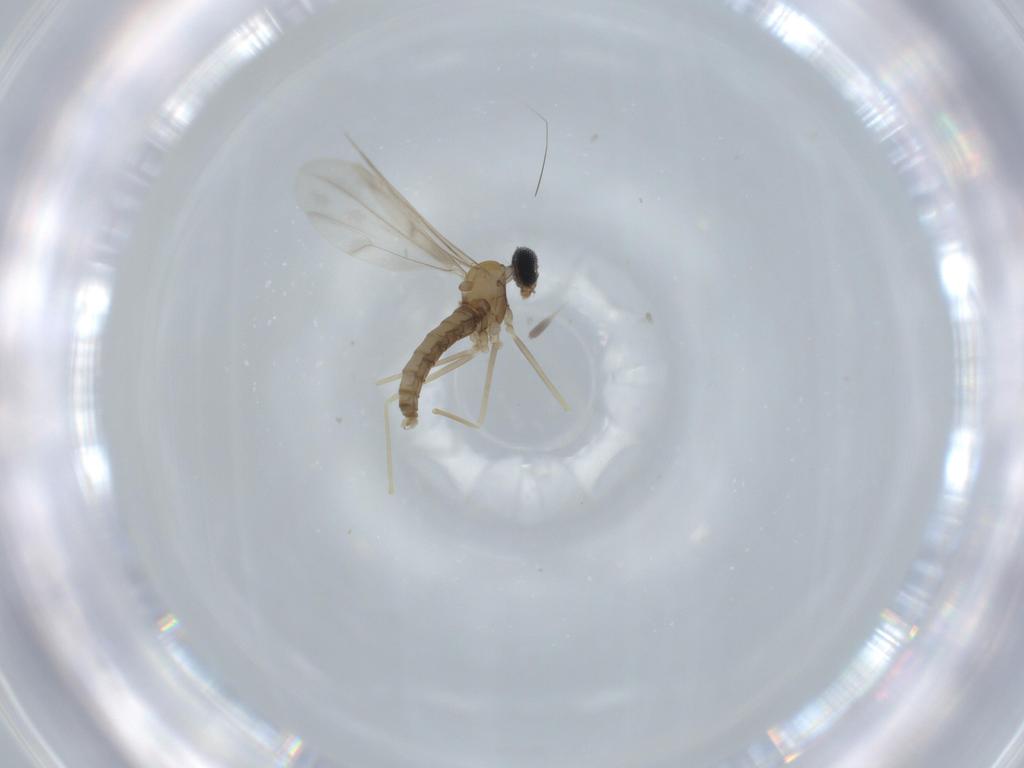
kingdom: Animalia
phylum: Arthropoda
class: Insecta
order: Diptera
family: Cecidomyiidae
